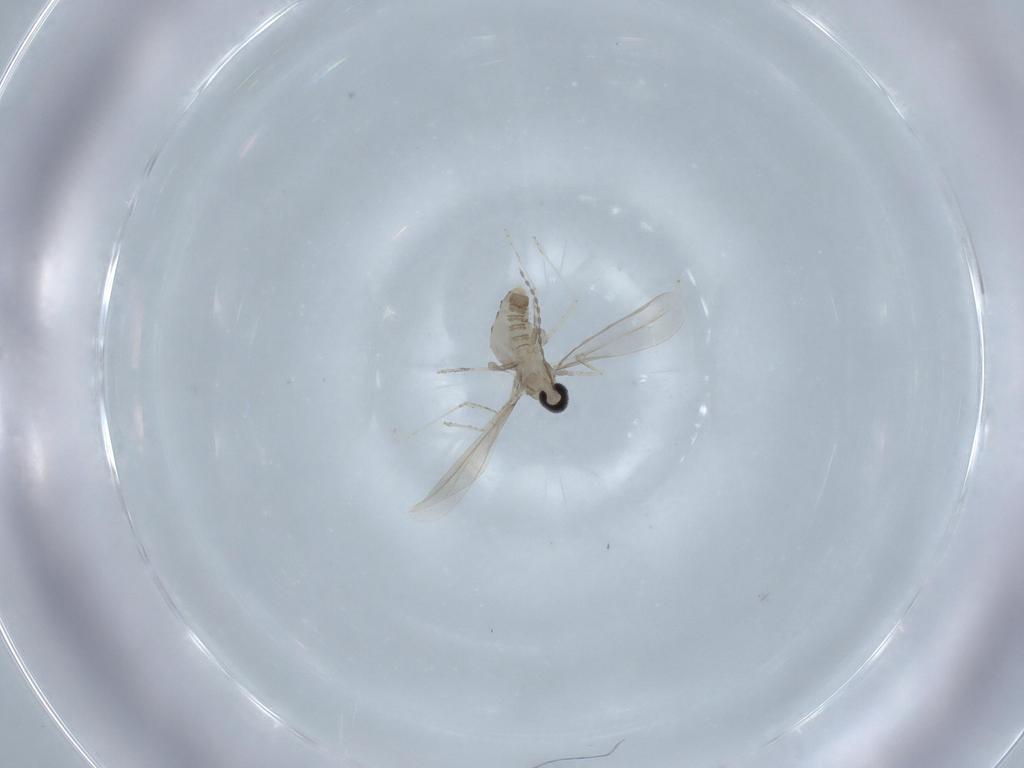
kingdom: Animalia
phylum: Arthropoda
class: Insecta
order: Diptera
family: Cecidomyiidae
